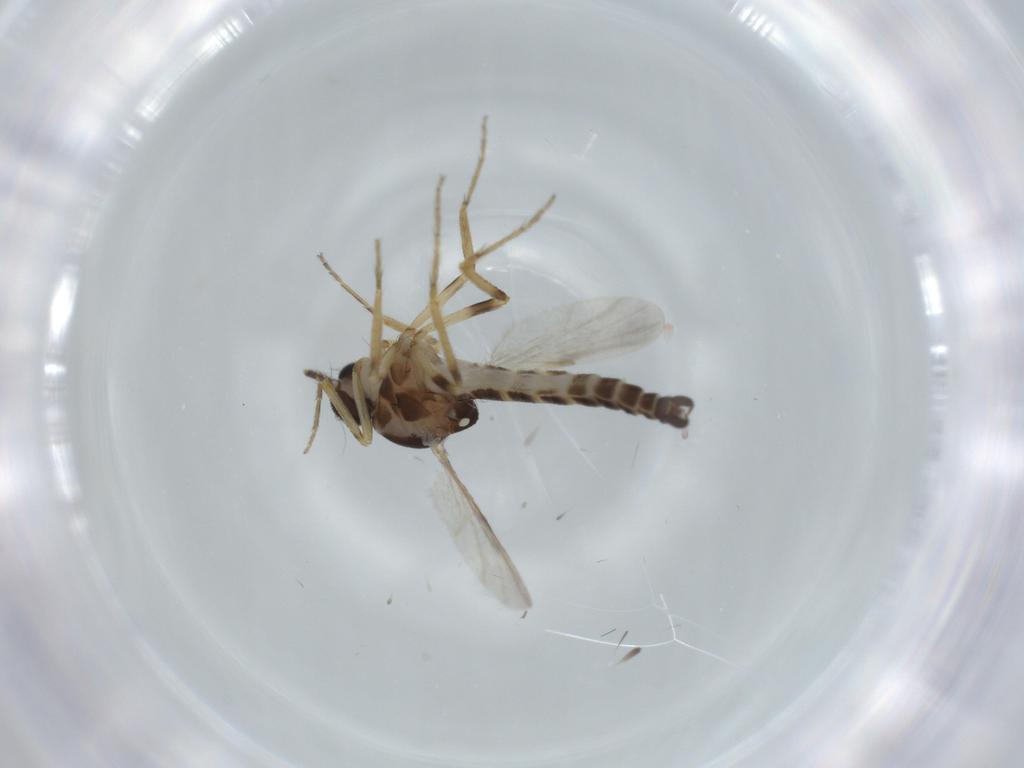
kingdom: Animalia
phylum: Arthropoda
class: Insecta
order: Diptera
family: Ceratopogonidae
